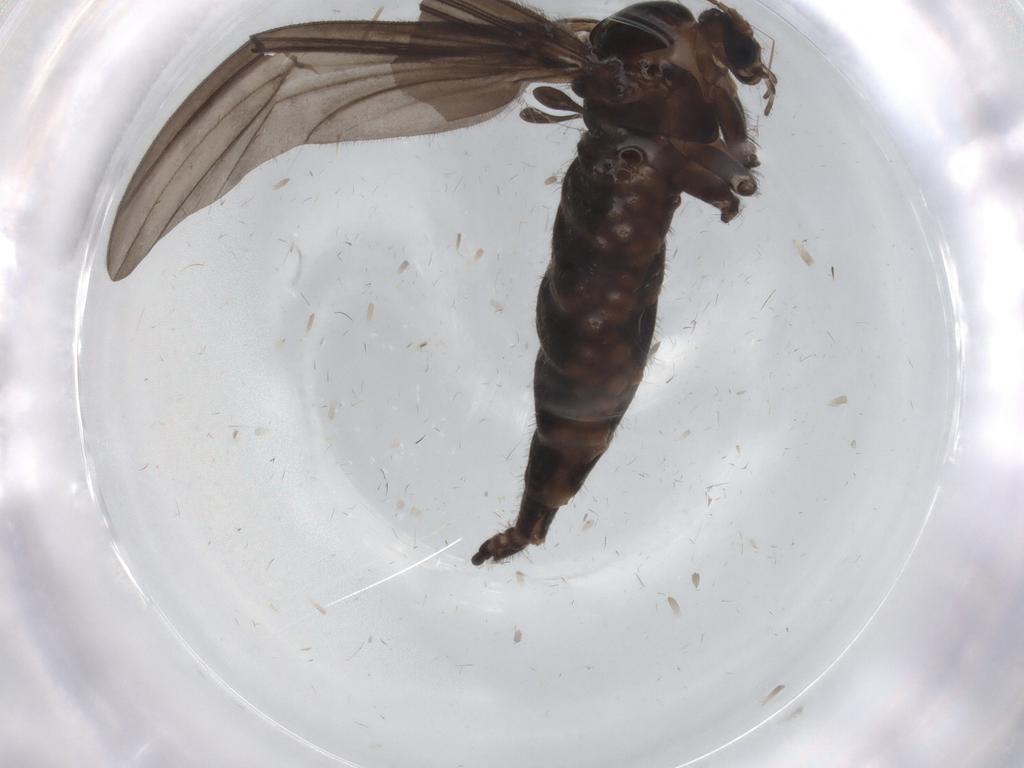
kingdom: Animalia
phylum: Arthropoda
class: Insecta
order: Diptera
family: Sciaridae
